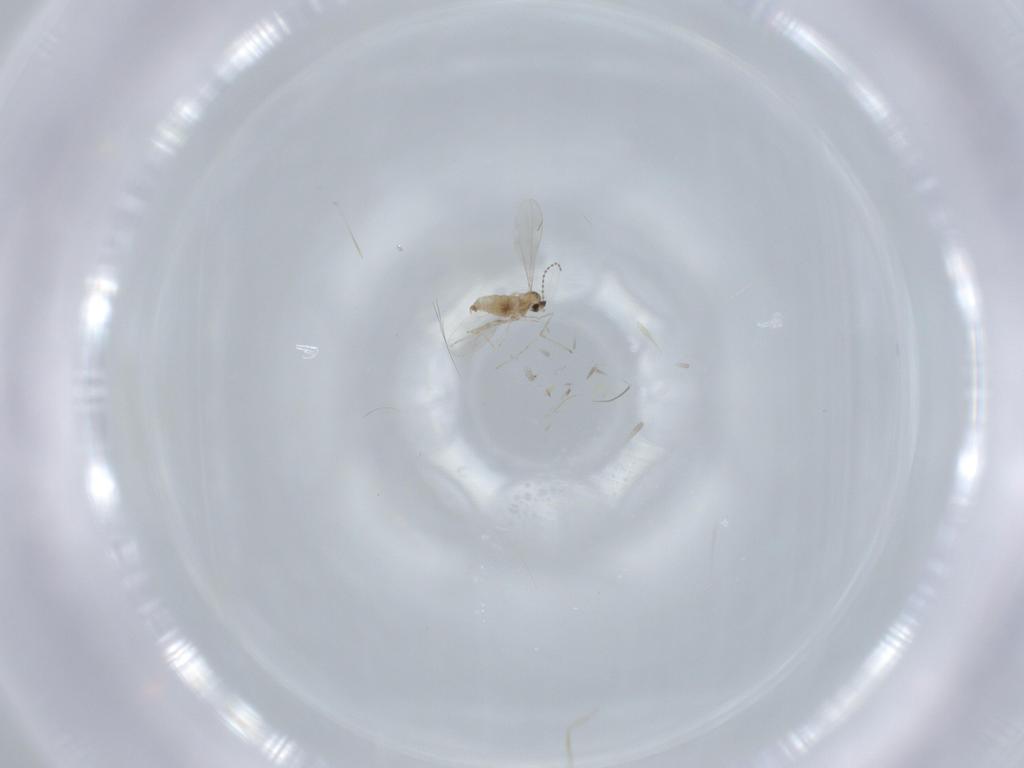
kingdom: Animalia
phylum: Arthropoda
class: Insecta
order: Diptera
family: Cecidomyiidae
